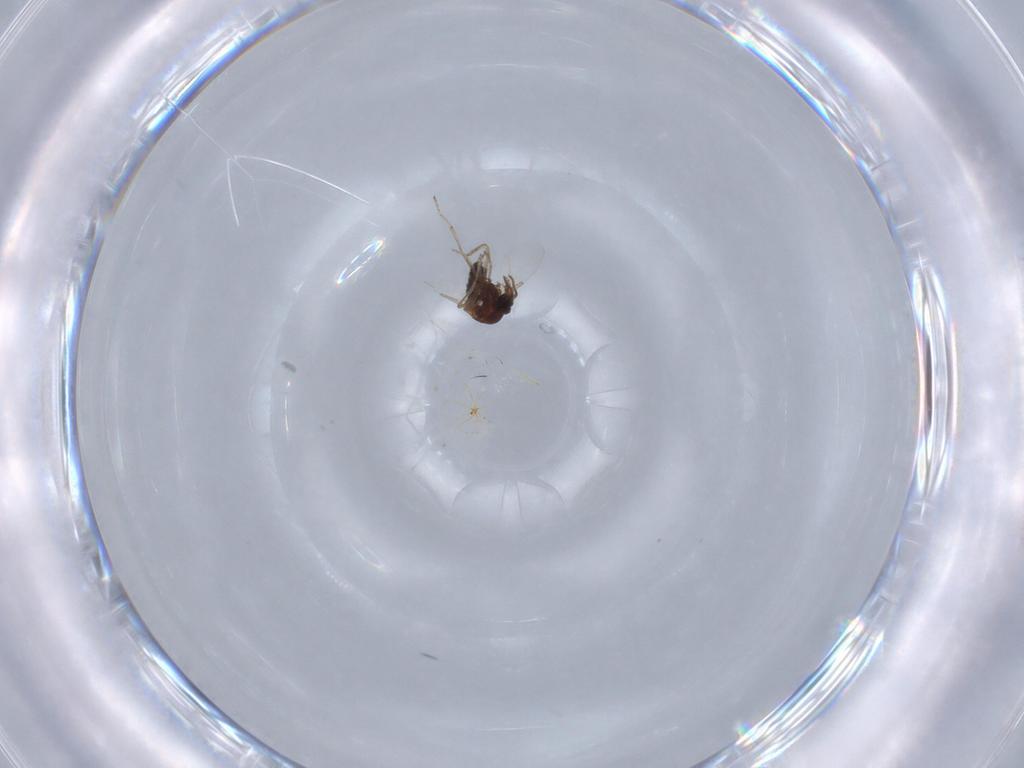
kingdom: Animalia
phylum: Arthropoda
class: Insecta
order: Diptera
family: Ceratopogonidae
